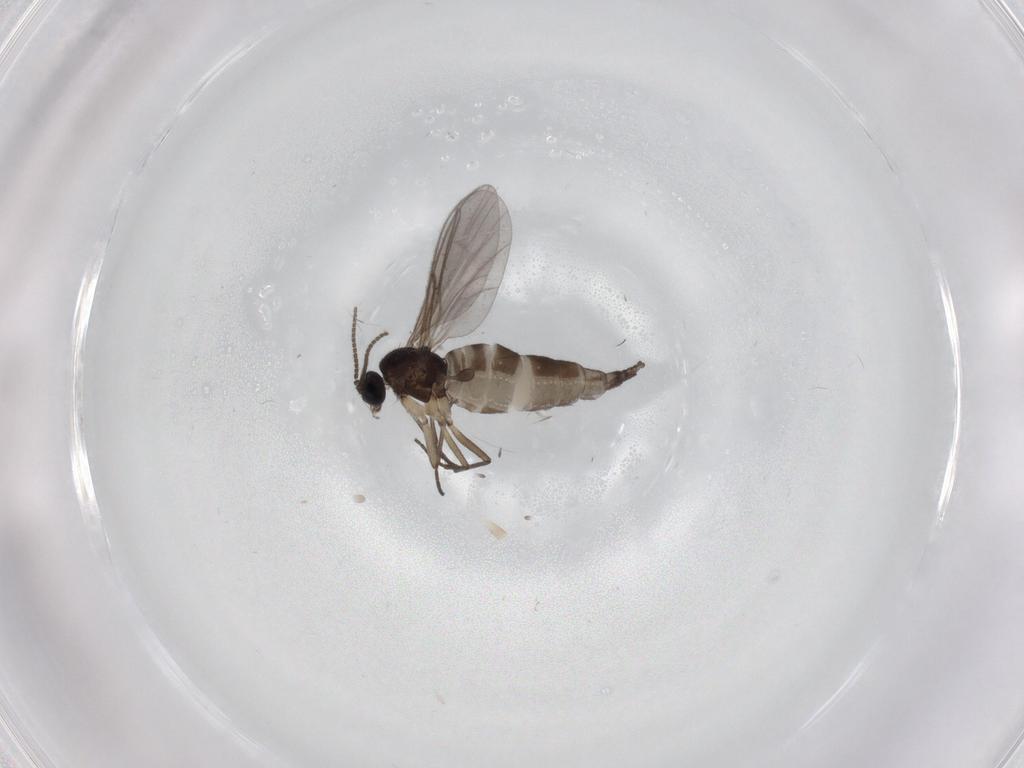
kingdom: Animalia
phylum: Arthropoda
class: Insecta
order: Diptera
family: Sciaridae
